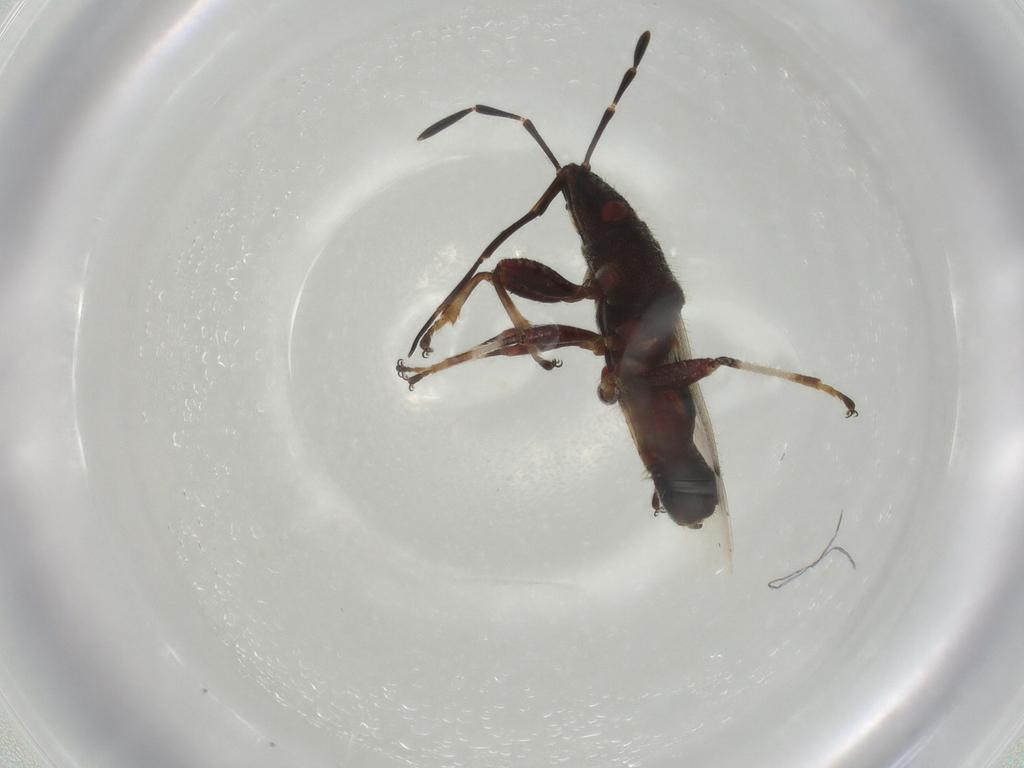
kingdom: Animalia
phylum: Arthropoda
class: Insecta
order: Hemiptera
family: Oxycarenidae
